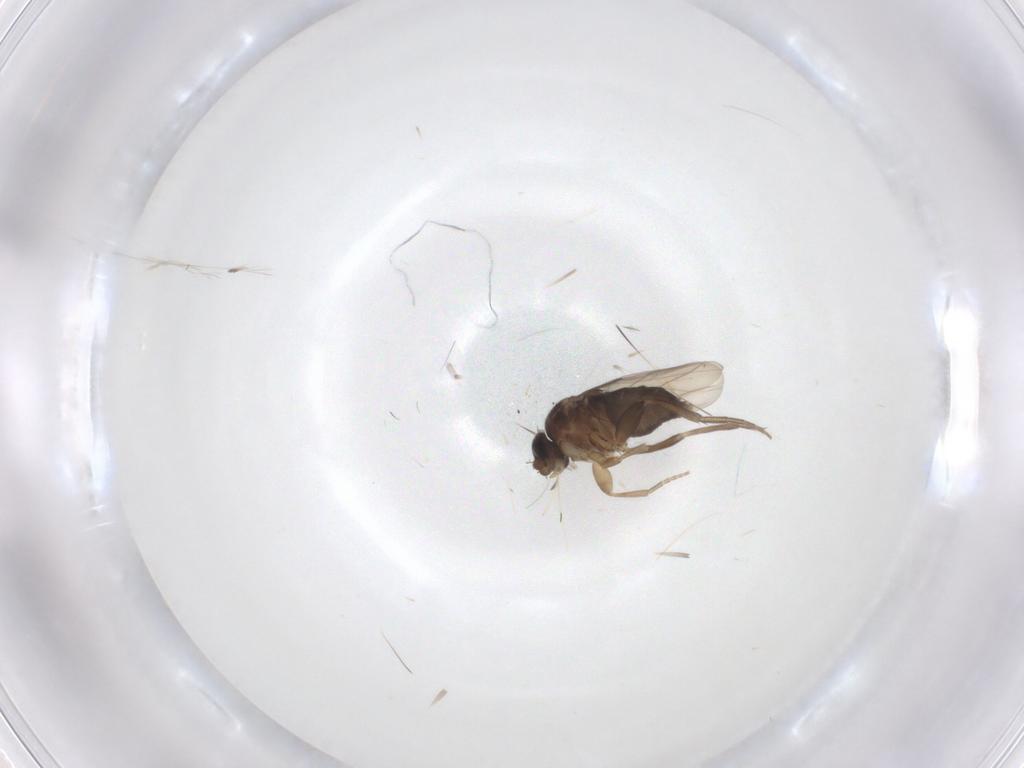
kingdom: Animalia
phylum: Arthropoda
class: Insecta
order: Diptera
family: Phoridae
